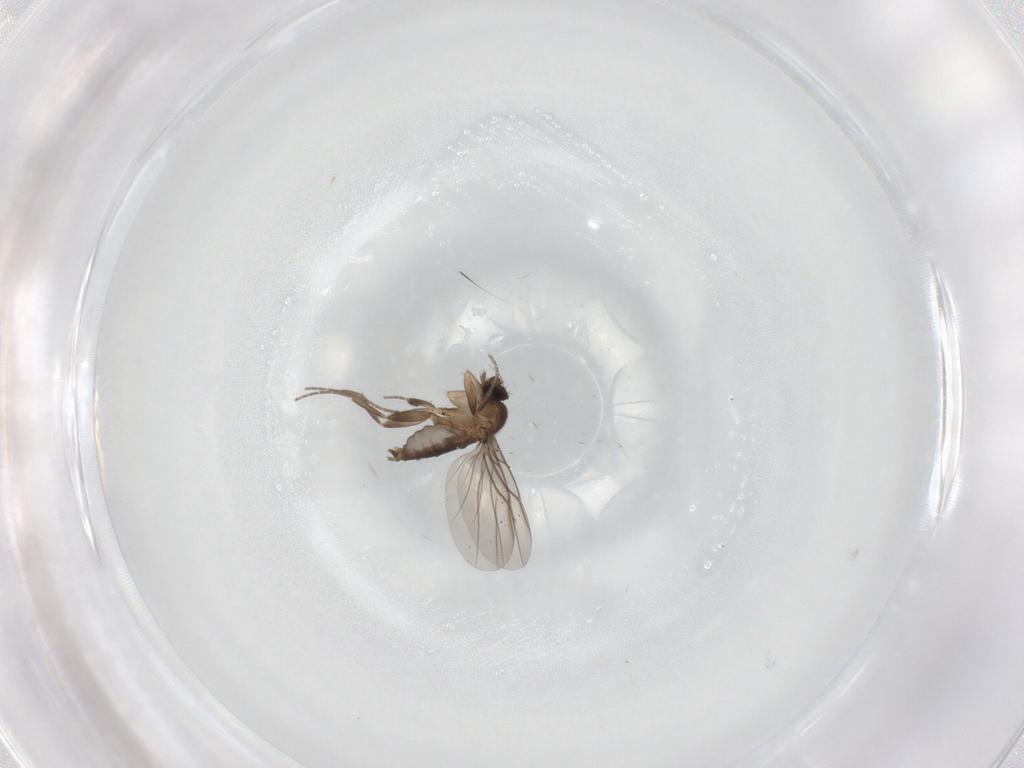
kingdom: Animalia
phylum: Arthropoda
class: Insecta
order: Diptera
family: Phoridae
